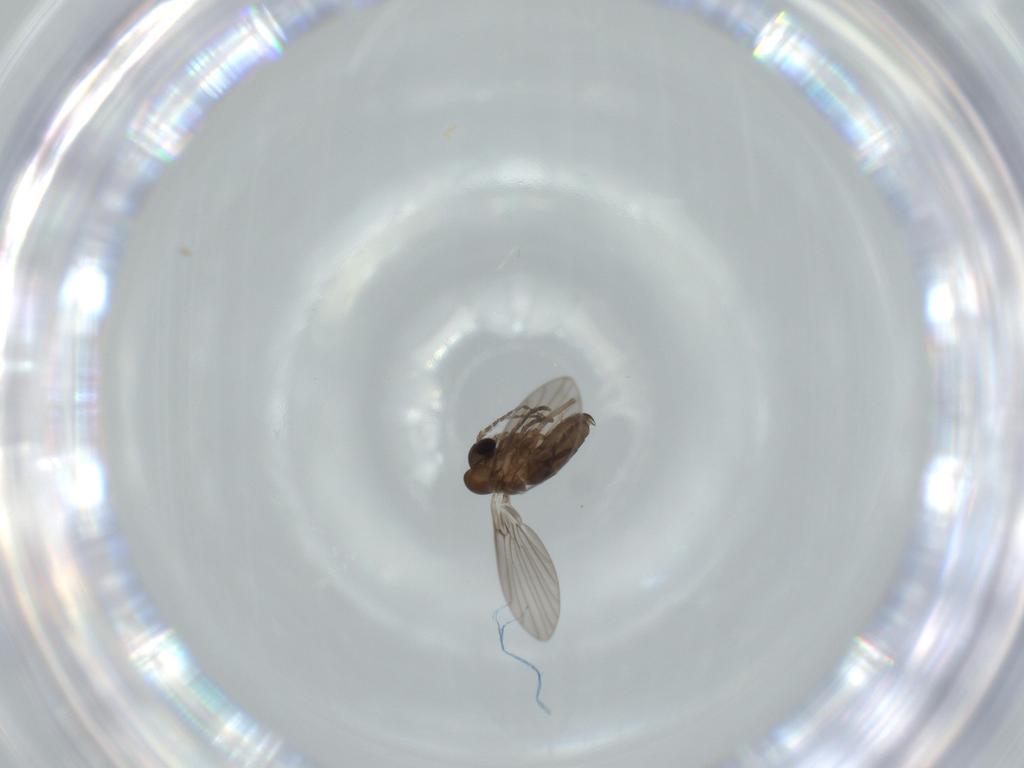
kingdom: Animalia
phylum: Arthropoda
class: Insecta
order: Diptera
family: Psychodidae
